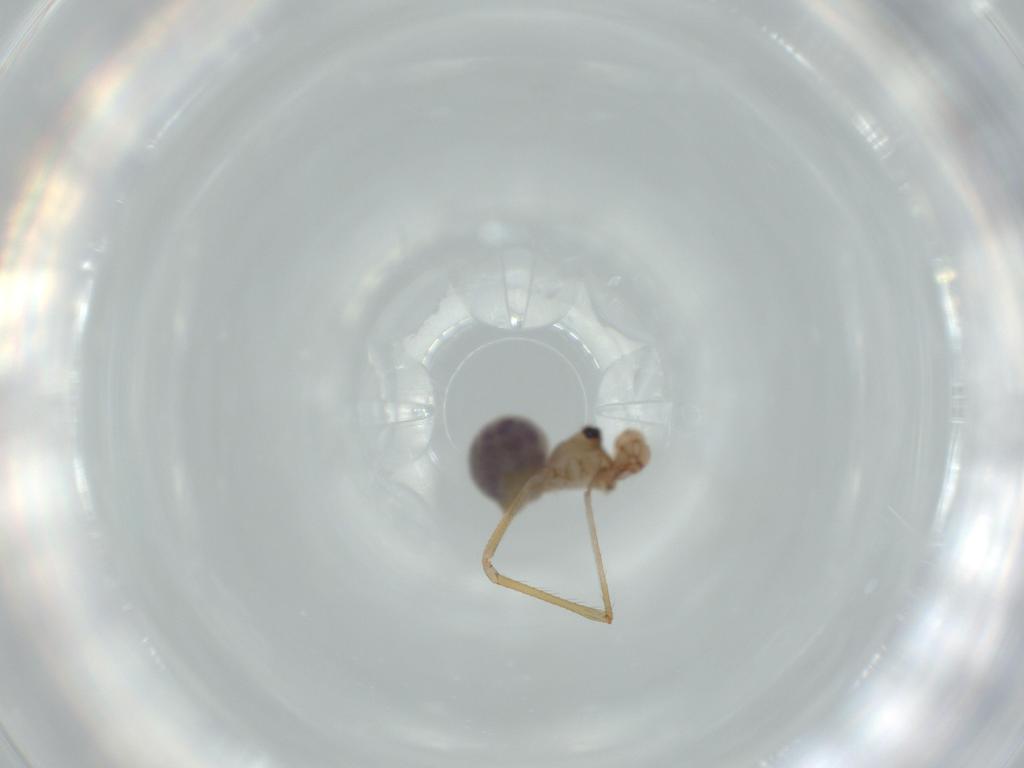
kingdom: Animalia
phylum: Arthropoda
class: Arachnida
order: Araneae
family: Pholcidae
